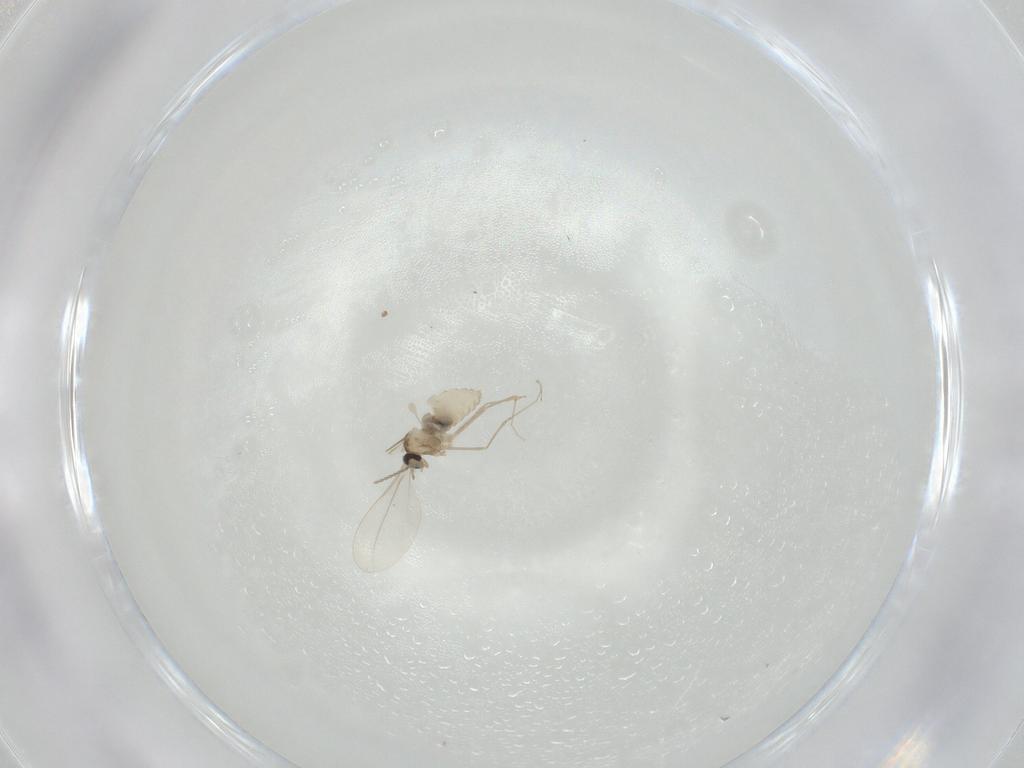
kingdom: Animalia
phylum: Arthropoda
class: Insecta
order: Diptera
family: Cecidomyiidae
